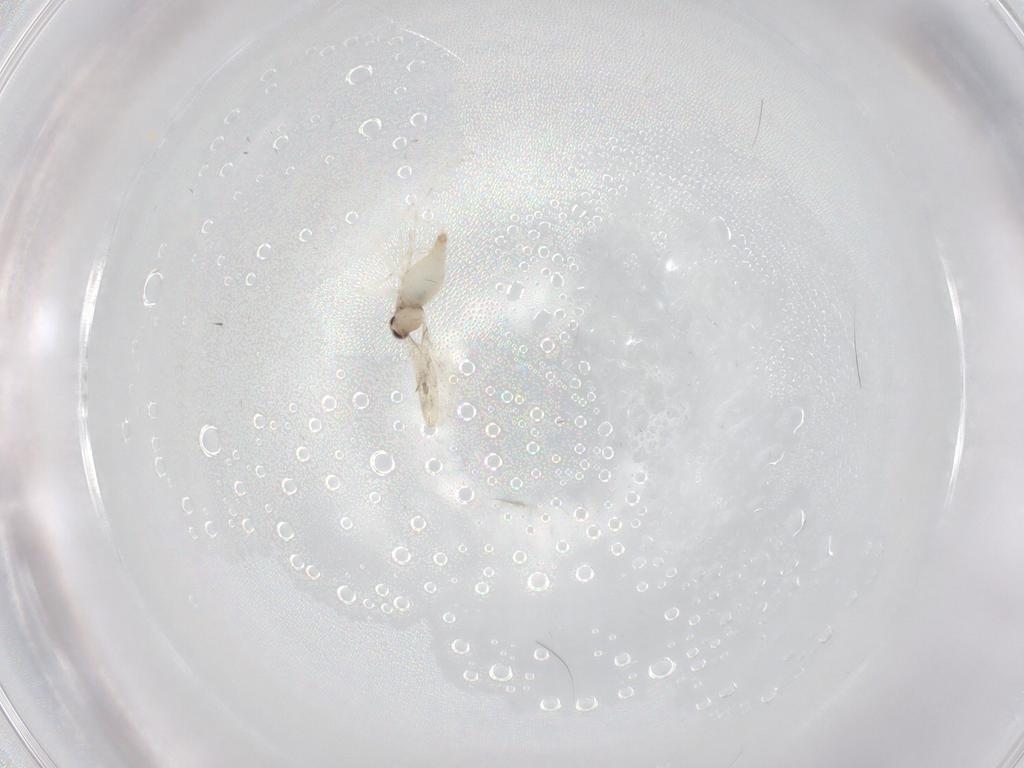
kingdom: Animalia
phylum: Arthropoda
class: Insecta
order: Diptera
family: Cecidomyiidae
